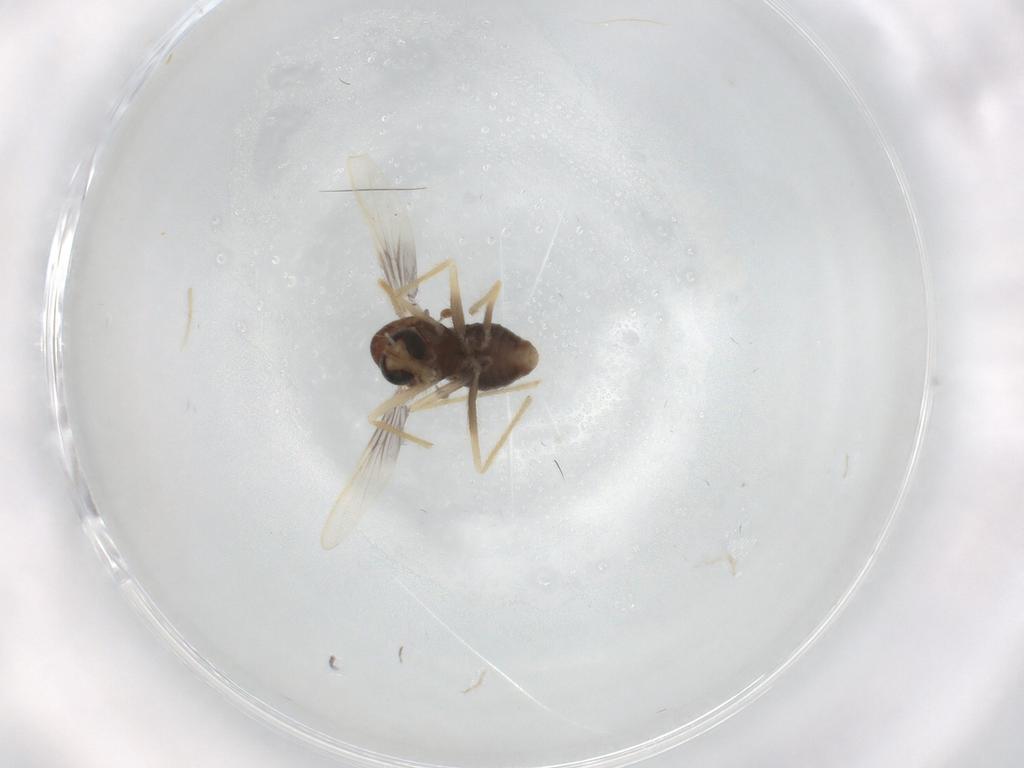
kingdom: Animalia
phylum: Arthropoda
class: Insecta
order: Diptera
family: Chironomidae
